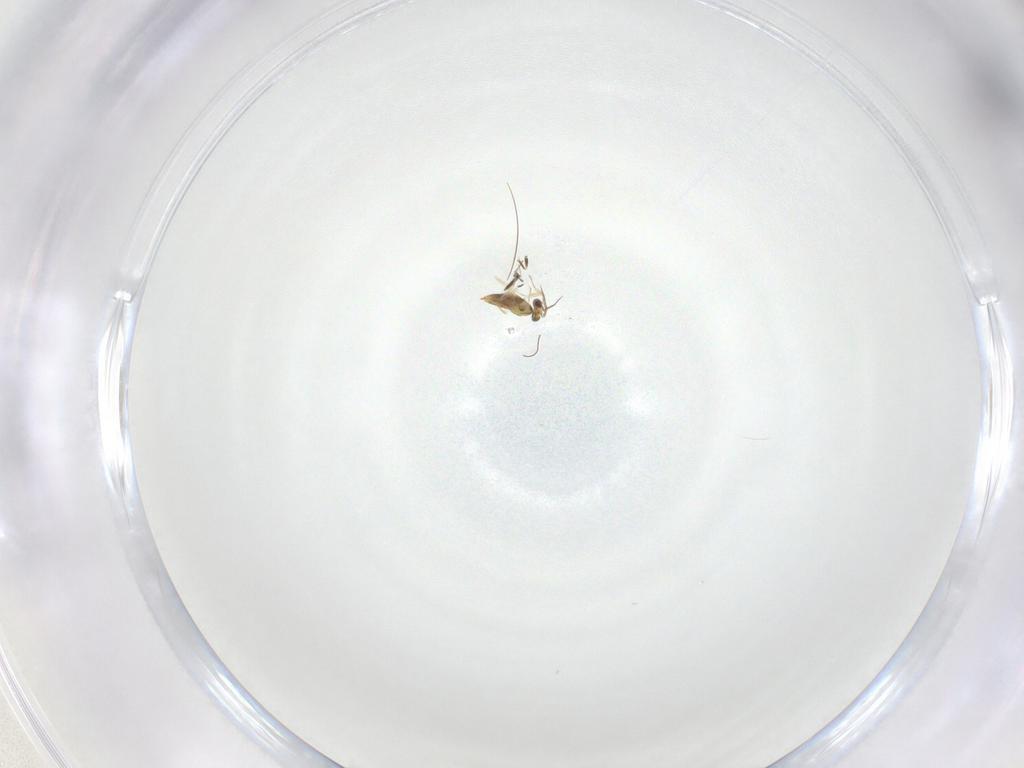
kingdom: Animalia
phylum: Arthropoda
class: Insecta
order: Hymenoptera
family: Aphelinidae
